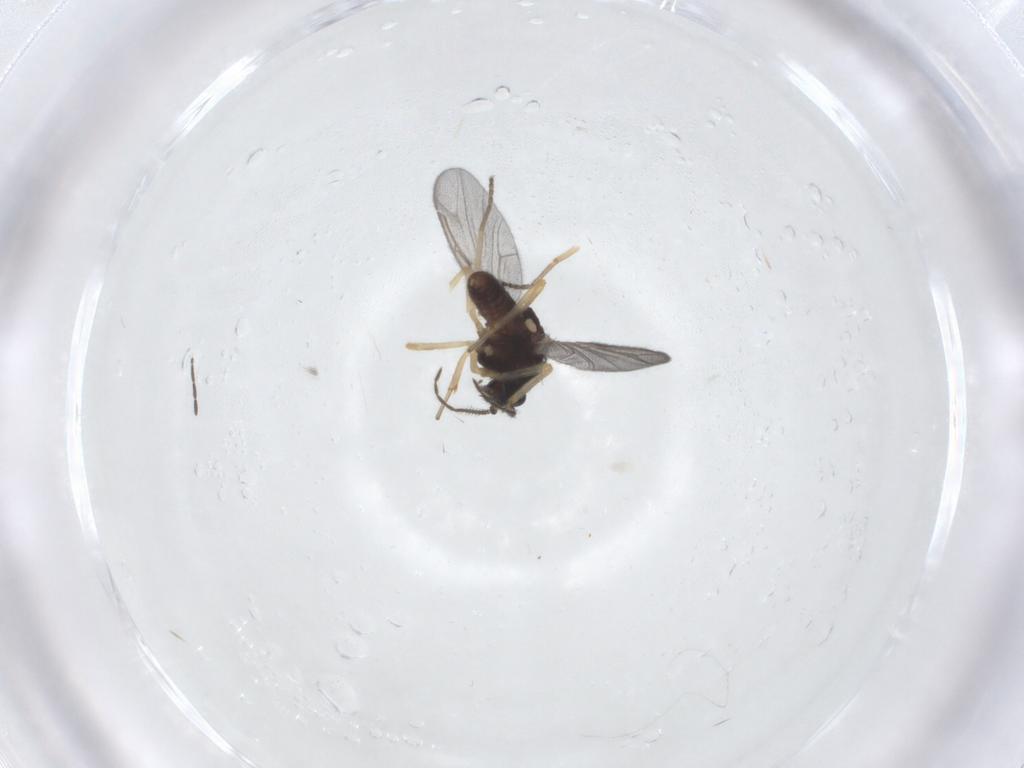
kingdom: Animalia
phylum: Arthropoda
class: Insecta
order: Diptera
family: Ceratopogonidae
